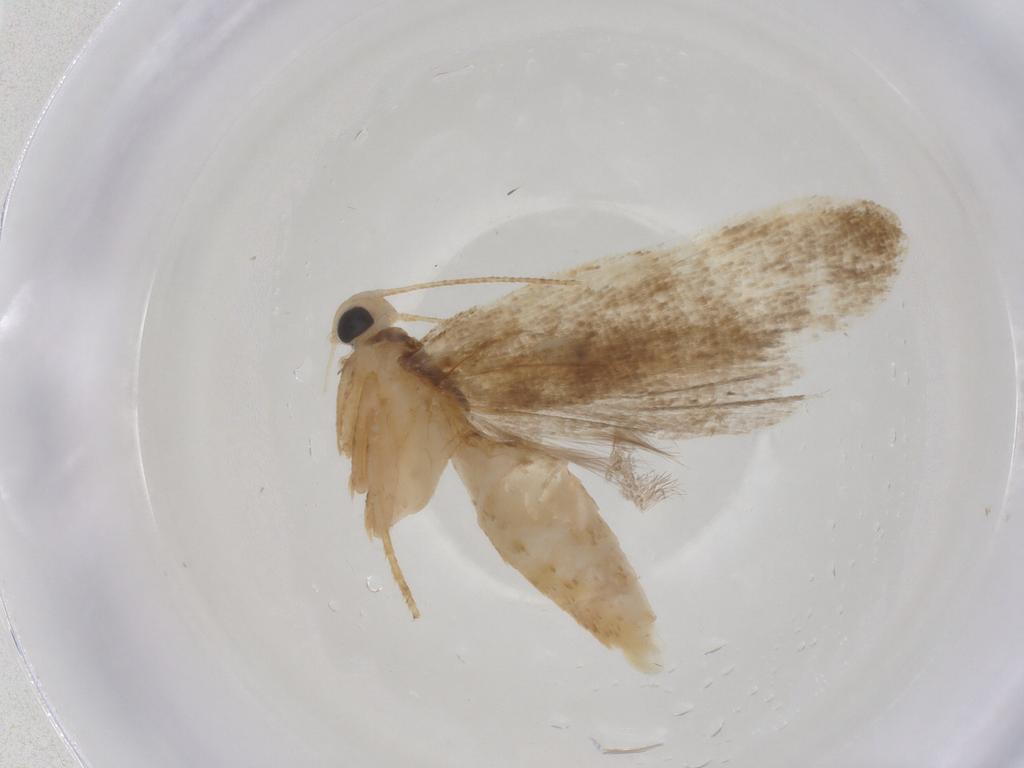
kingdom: Animalia
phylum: Arthropoda
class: Insecta
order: Lepidoptera
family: Gelechiidae
